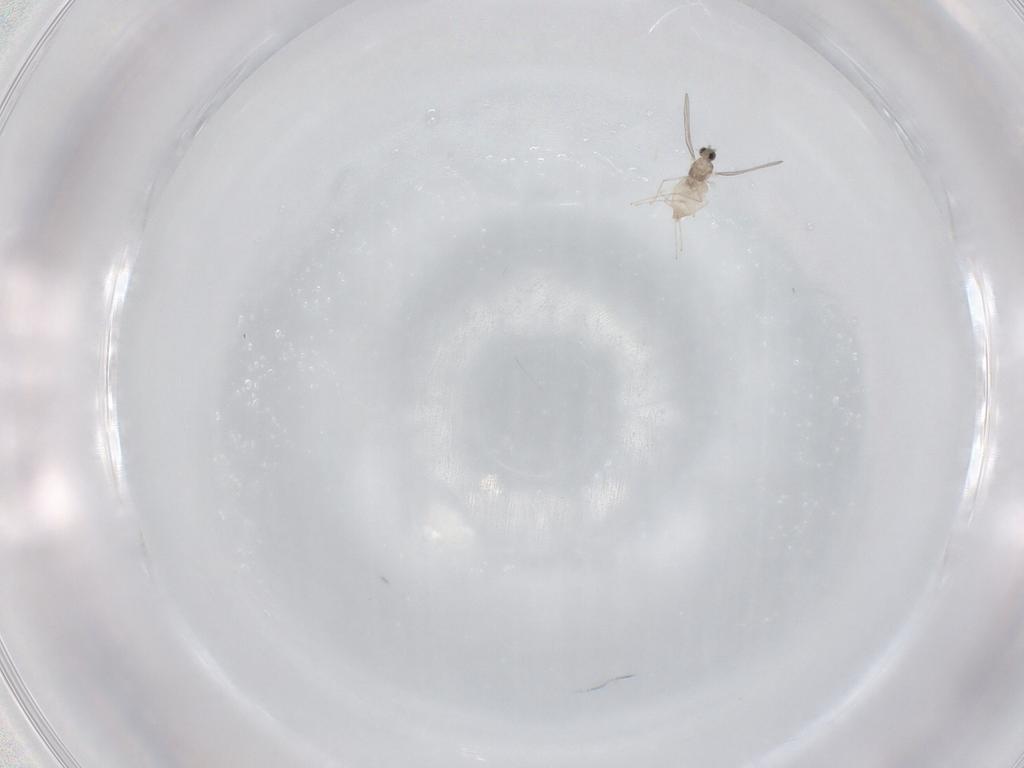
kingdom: Animalia
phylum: Arthropoda
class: Insecta
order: Diptera
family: Cecidomyiidae
